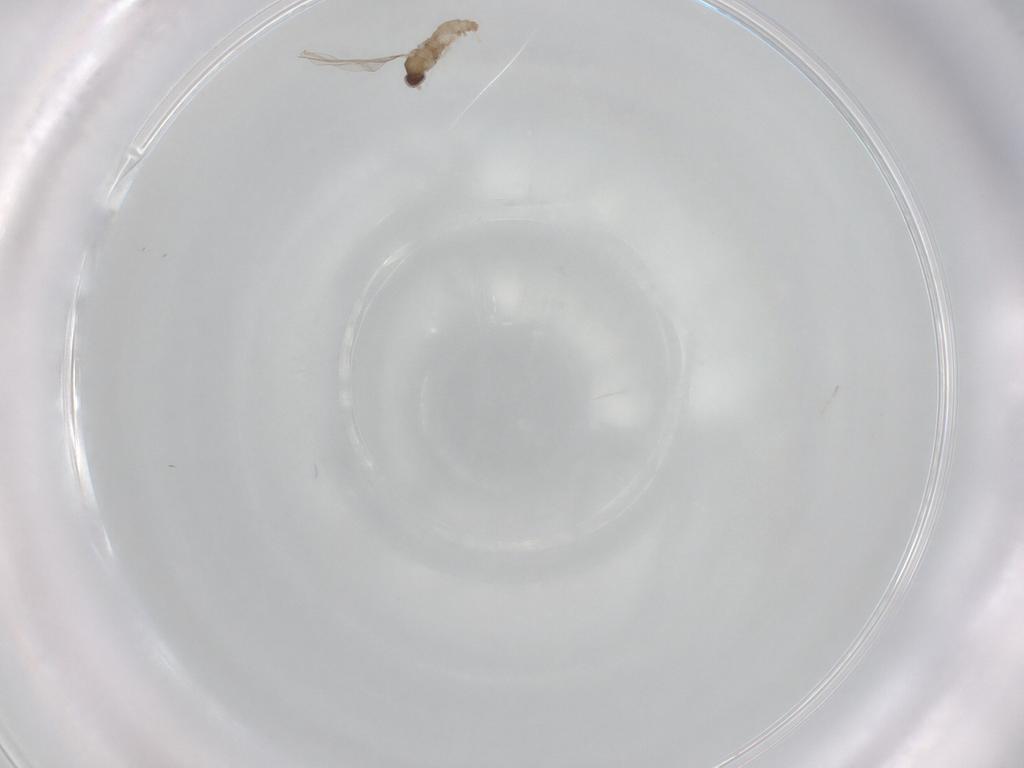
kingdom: Animalia
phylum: Arthropoda
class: Insecta
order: Diptera
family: Cecidomyiidae
